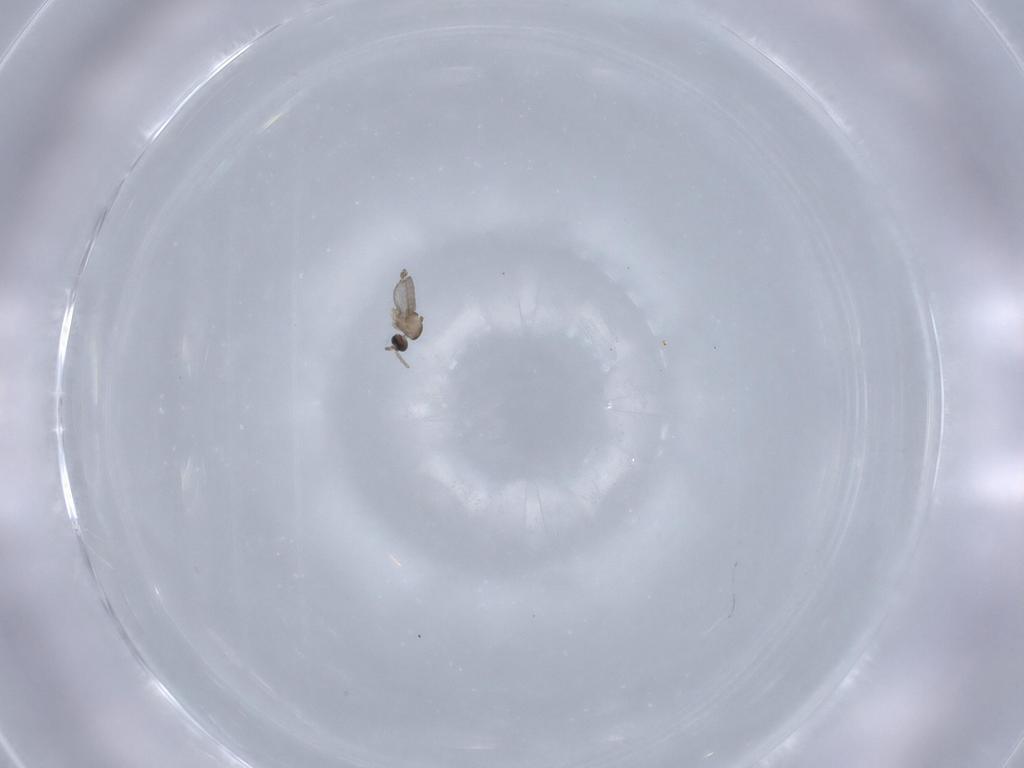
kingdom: Animalia
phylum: Arthropoda
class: Insecta
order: Diptera
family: Cecidomyiidae
